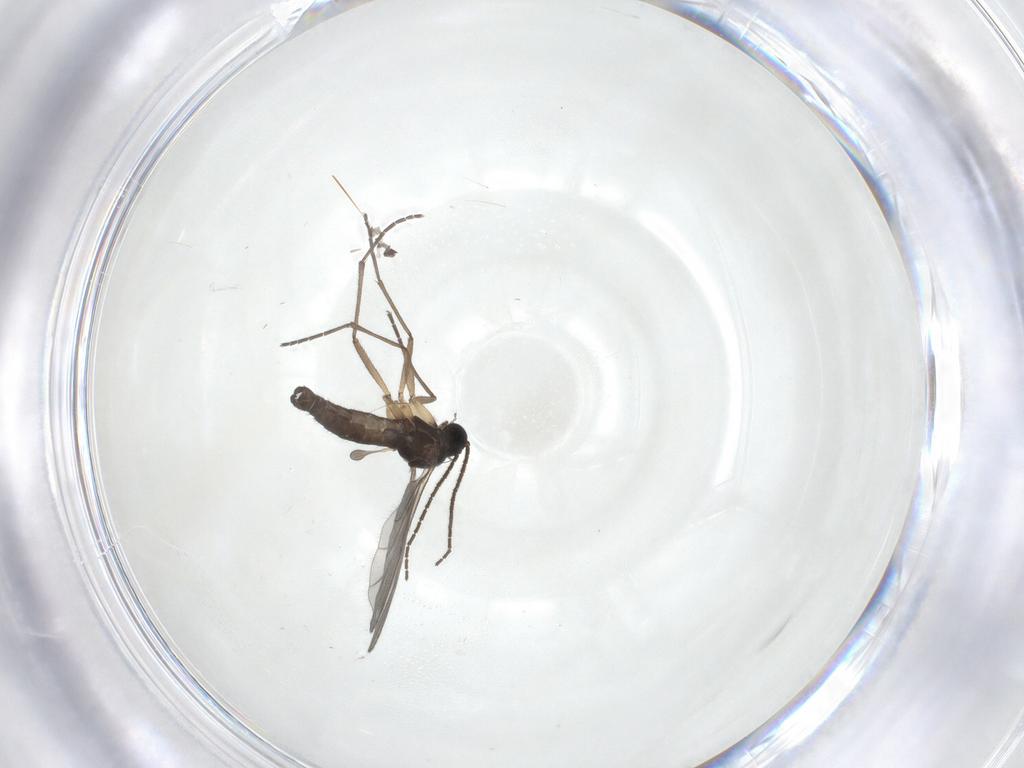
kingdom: Animalia
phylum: Arthropoda
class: Insecta
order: Diptera
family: Sciaridae
